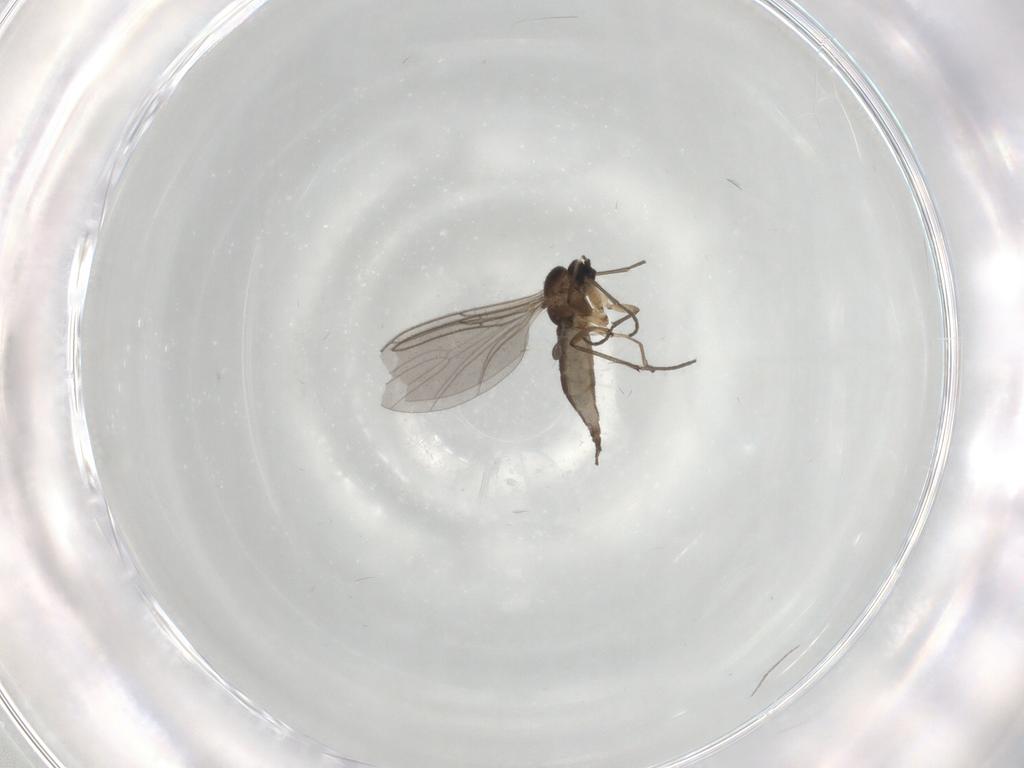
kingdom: Animalia
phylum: Arthropoda
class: Insecta
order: Diptera
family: Sciaridae
